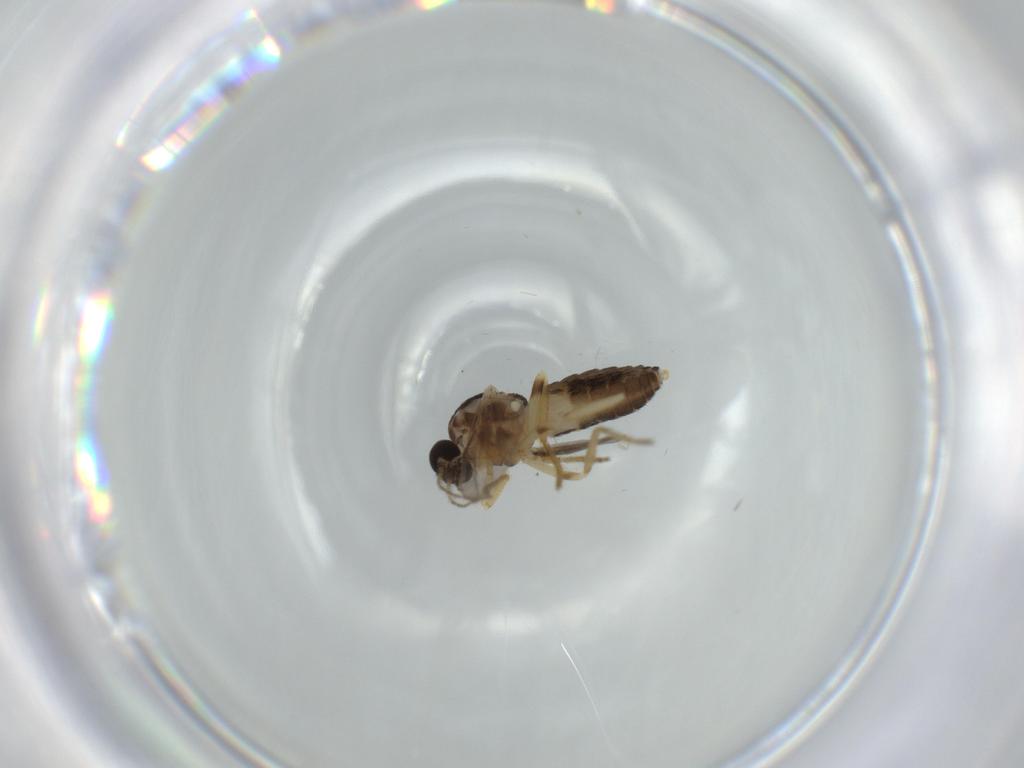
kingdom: Animalia
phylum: Arthropoda
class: Insecta
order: Diptera
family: Ceratopogonidae
